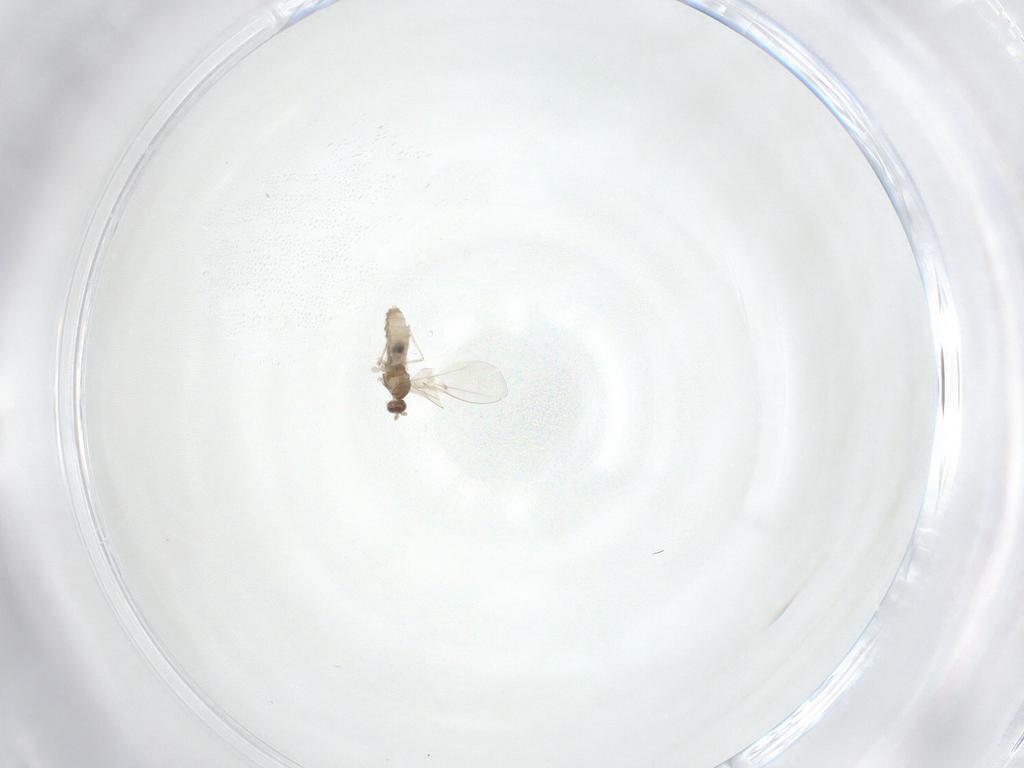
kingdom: Animalia
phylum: Arthropoda
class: Insecta
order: Diptera
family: Cecidomyiidae
